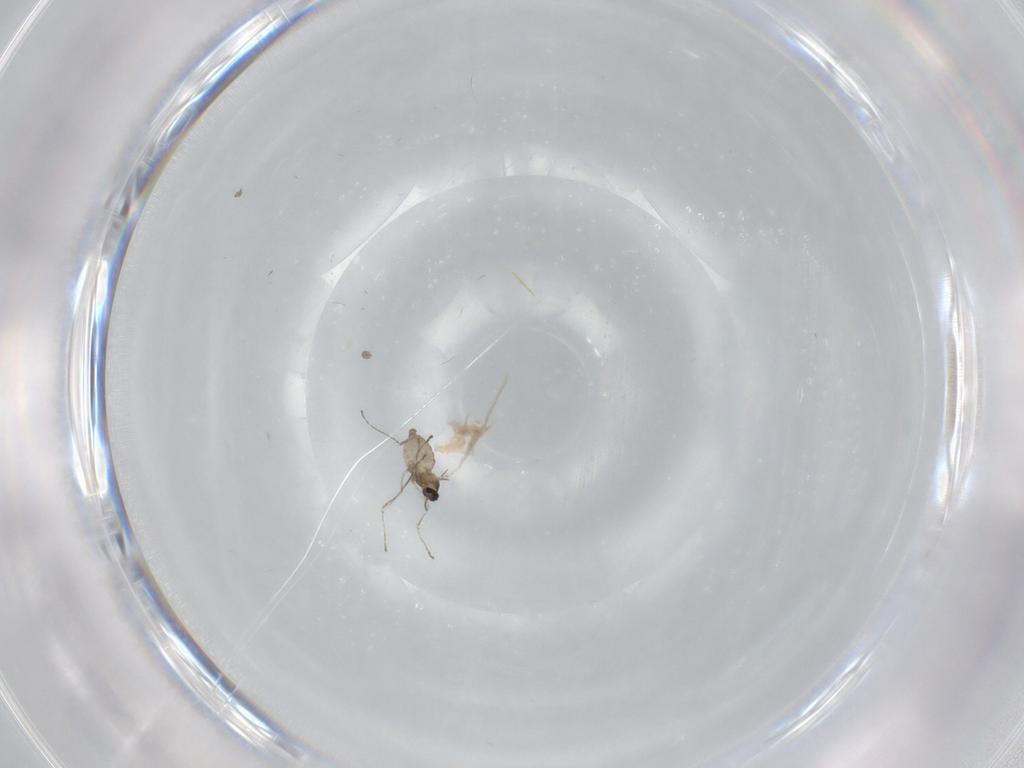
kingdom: Animalia
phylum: Arthropoda
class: Insecta
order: Diptera
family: Cecidomyiidae
